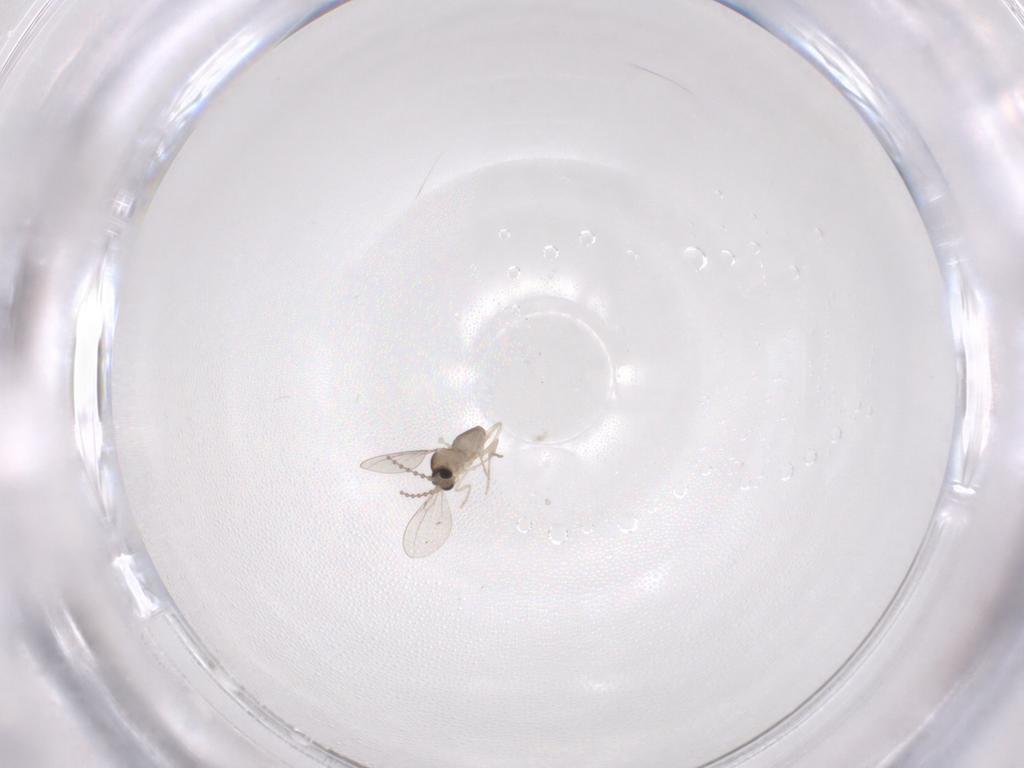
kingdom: Animalia
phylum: Arthropoda
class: Insecta
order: Diptera
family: Cecidomyiidae
